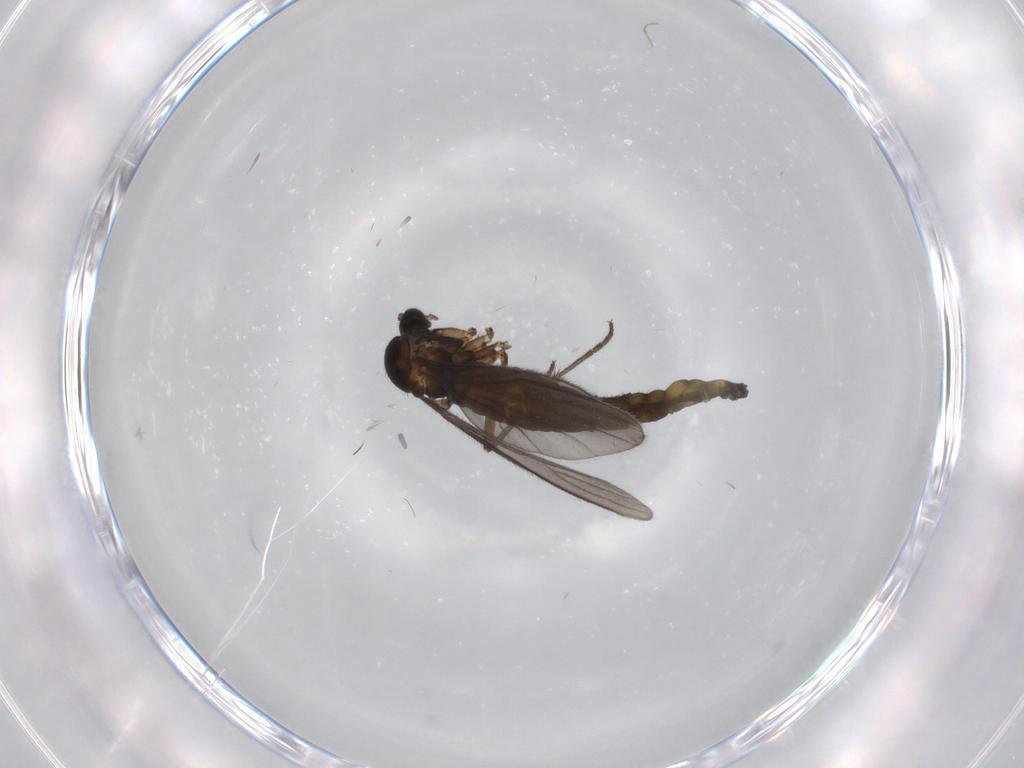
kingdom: Animalia
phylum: Arthropoda
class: Insecta
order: Diptera
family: Sciaridae
